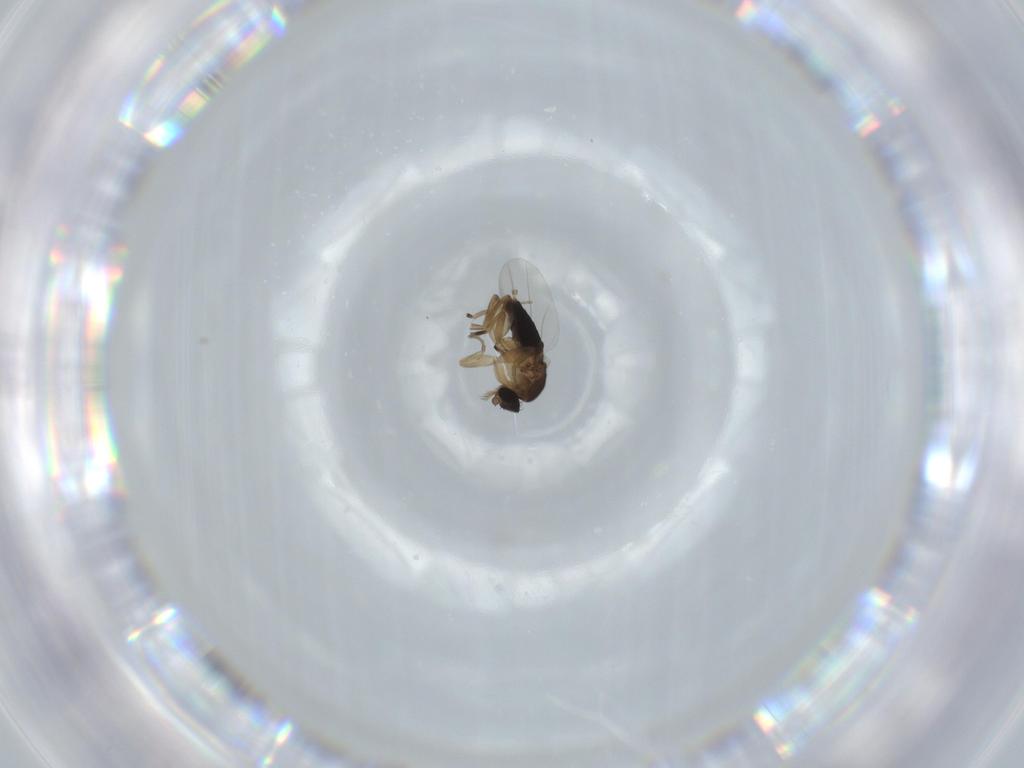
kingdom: Animalia
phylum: Arthropoda
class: Insecta
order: Diptera
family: Phoridae
